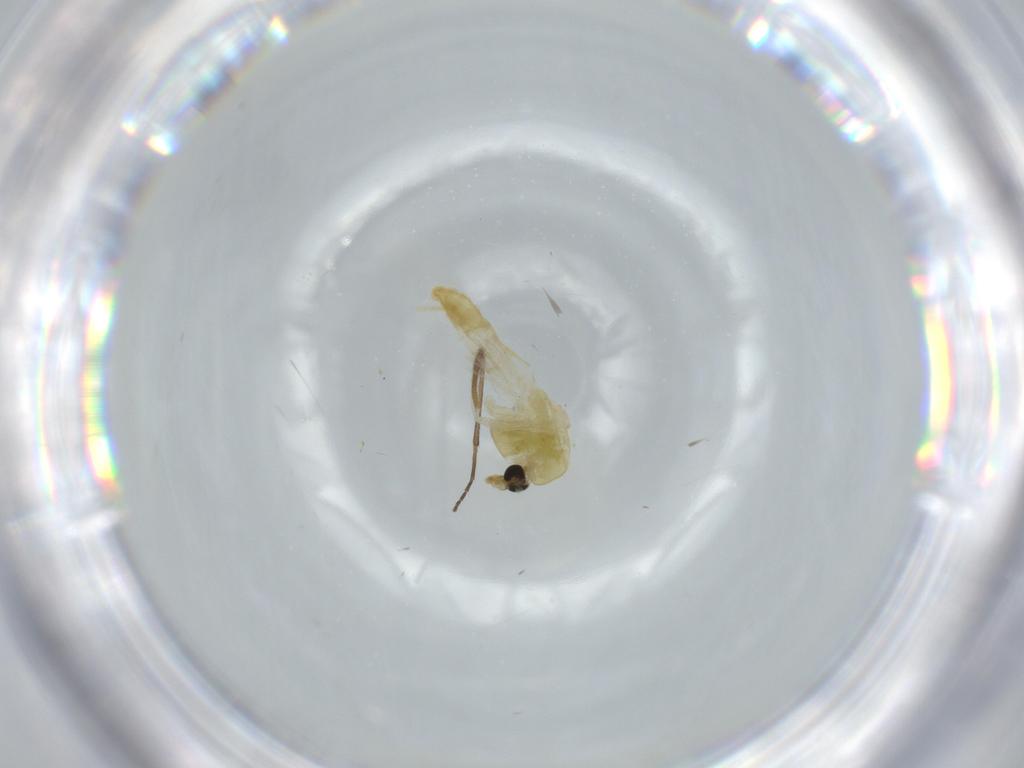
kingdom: Animalia
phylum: Arthropoda
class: Insecta
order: Diptera
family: Chironomidae
